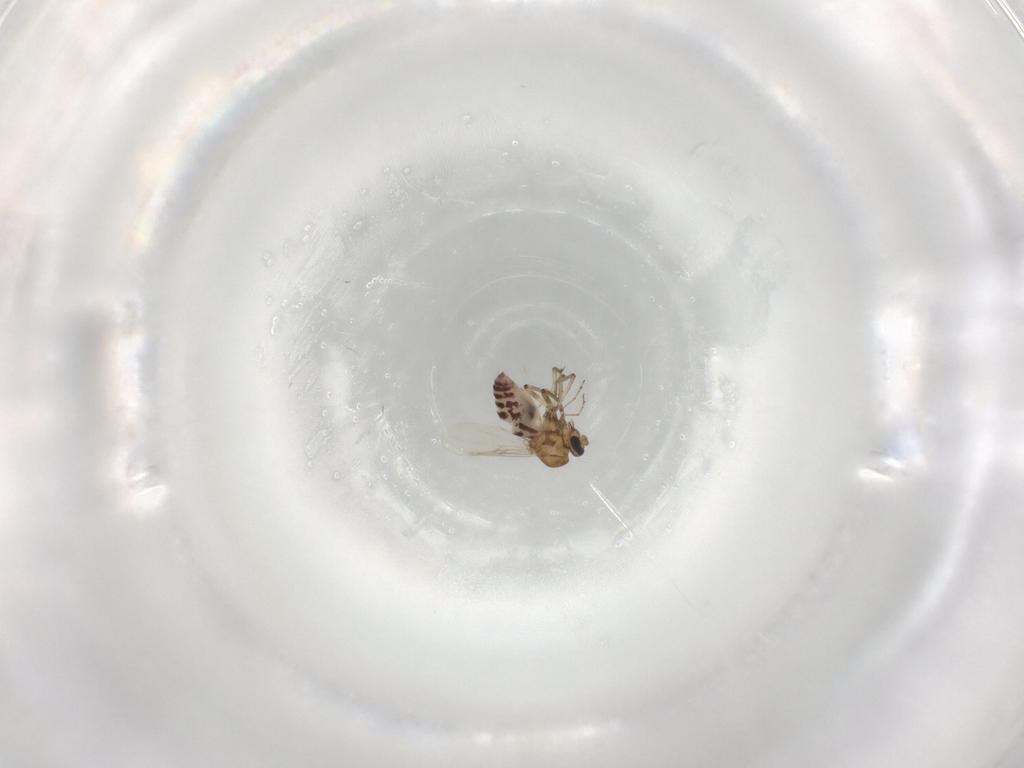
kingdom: Animalia
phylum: Arthropoda
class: Insecta
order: Diptera
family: Ceratopogonidae
